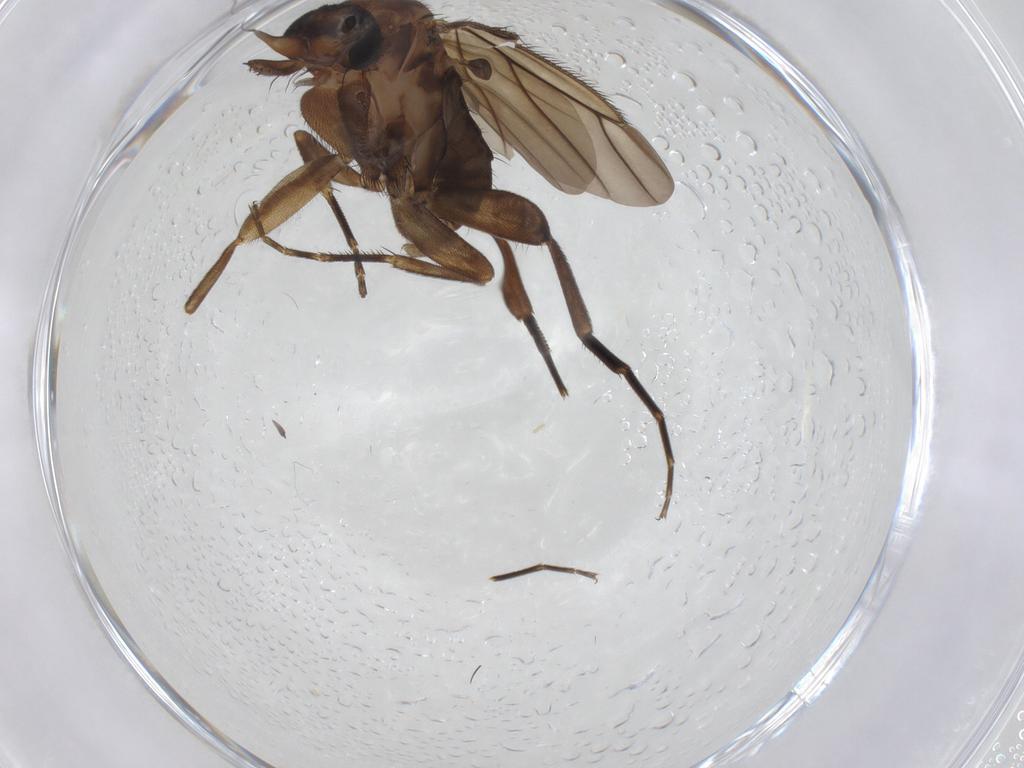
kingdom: Animalia
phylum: Arthropoda
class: Insecta
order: Diptera
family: Phoridae
